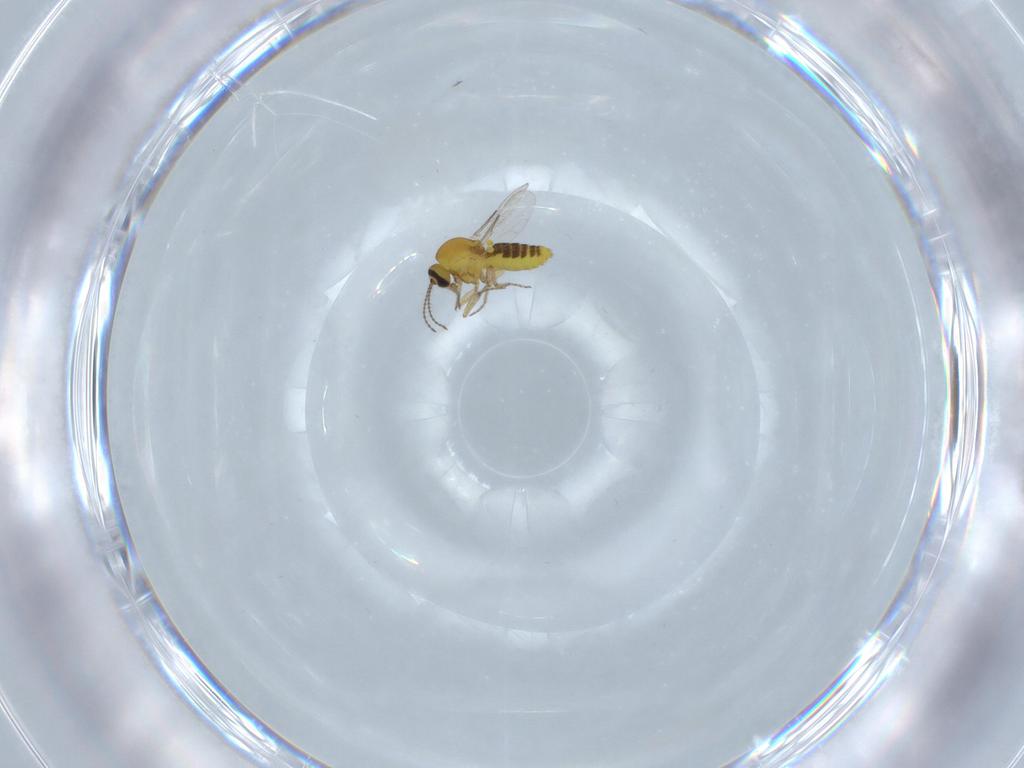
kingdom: Animalia
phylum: Arthropoda
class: Insecta
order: Diptera
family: Ceratopogonidae
